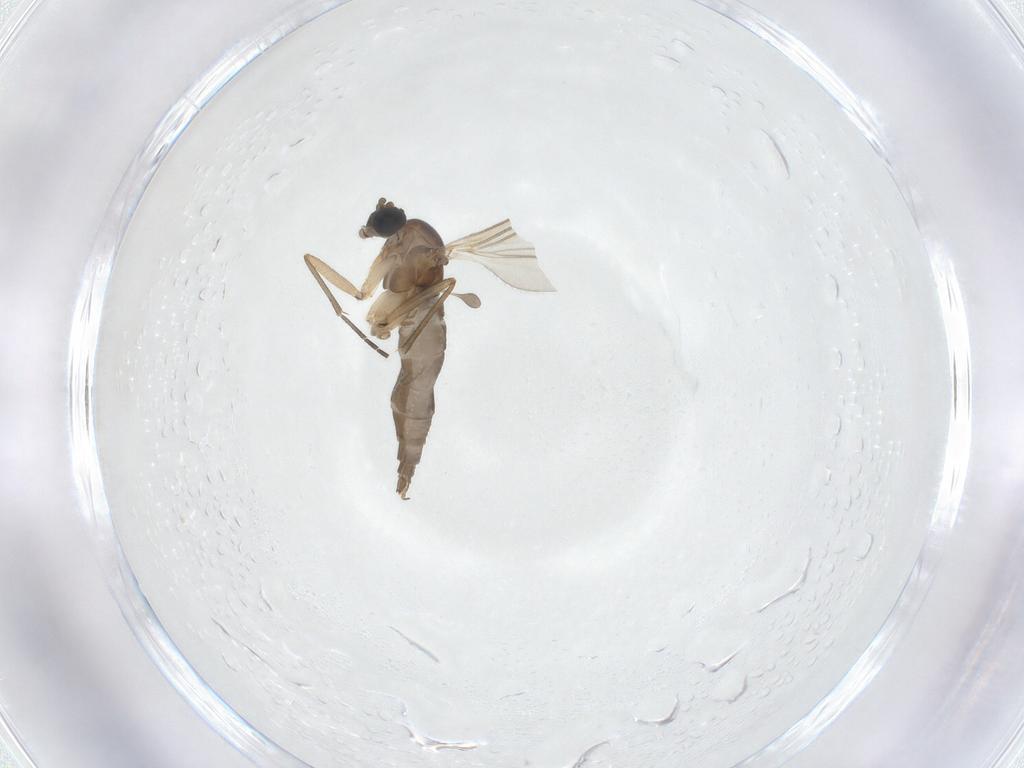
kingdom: Animalia
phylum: Arthropoda
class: Insecta
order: Diptera
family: Sciaridae
